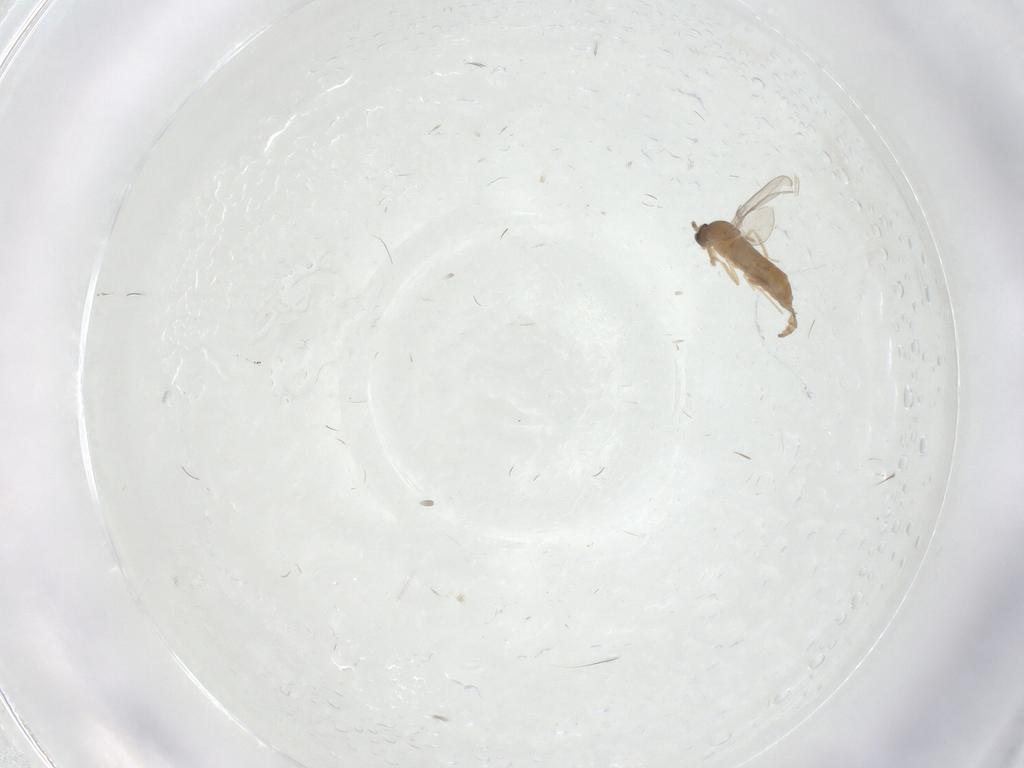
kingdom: Animalia
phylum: Arthropoda
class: Insecta
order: Diptera
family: Cecidomyiidae
